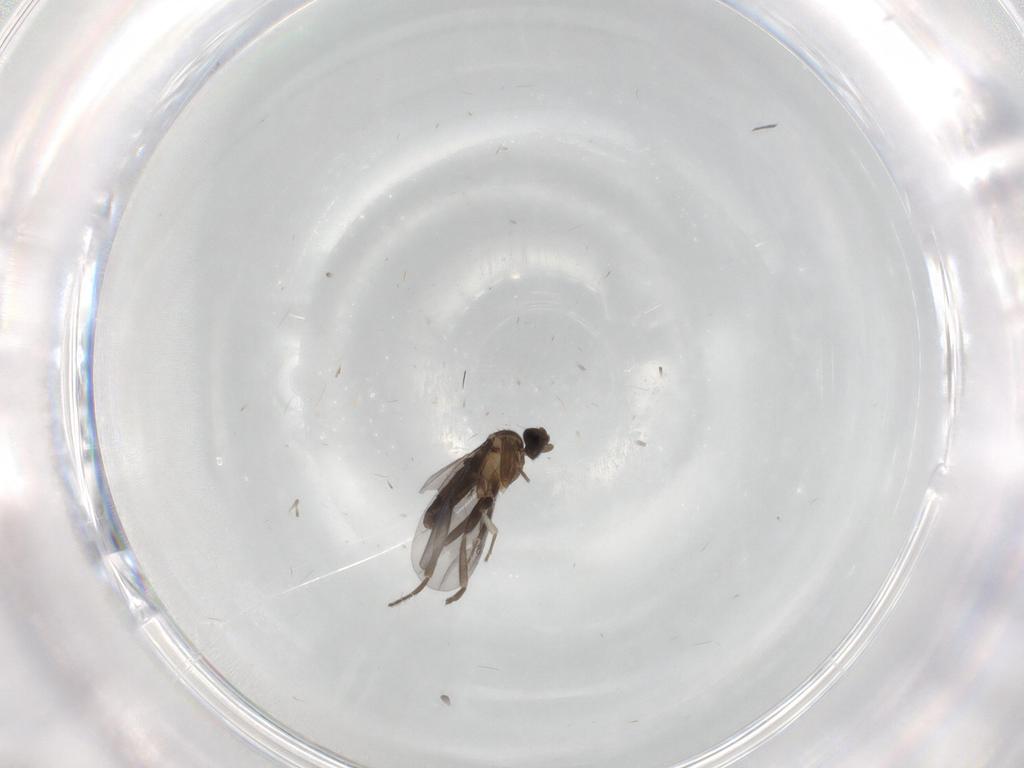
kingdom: Animalia
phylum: Arthropoda
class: Insecta
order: Diptera
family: Phoridae
